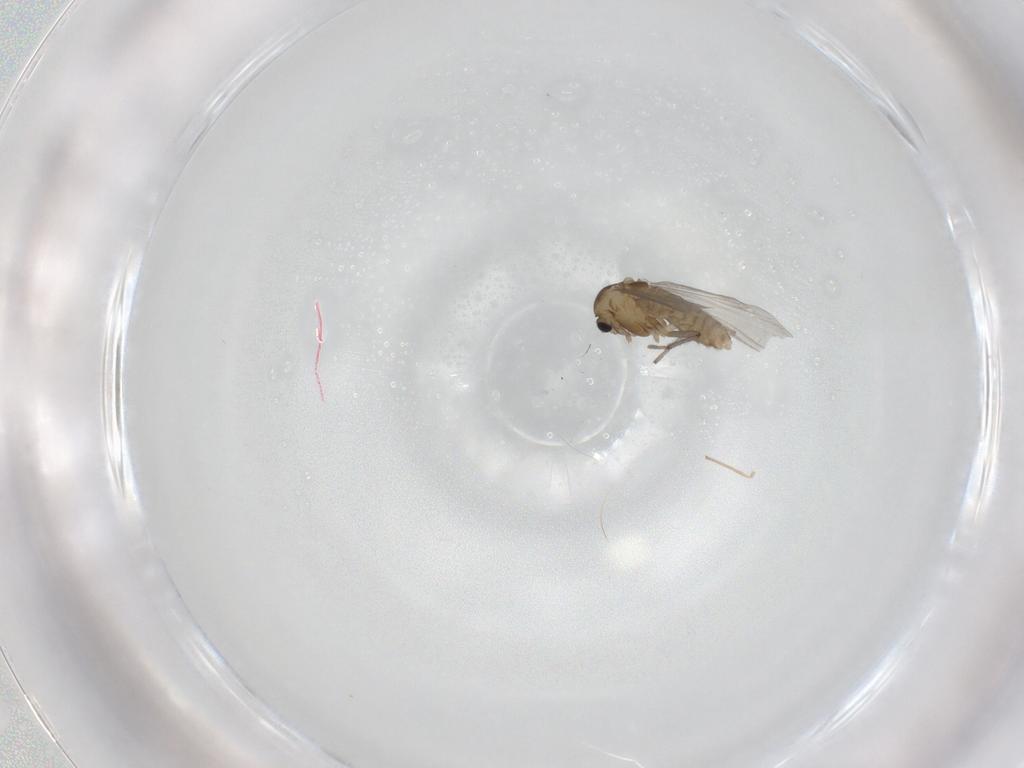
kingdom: Animalia
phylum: Arthropoda
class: Insecta
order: Diptera
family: Chironomidae
